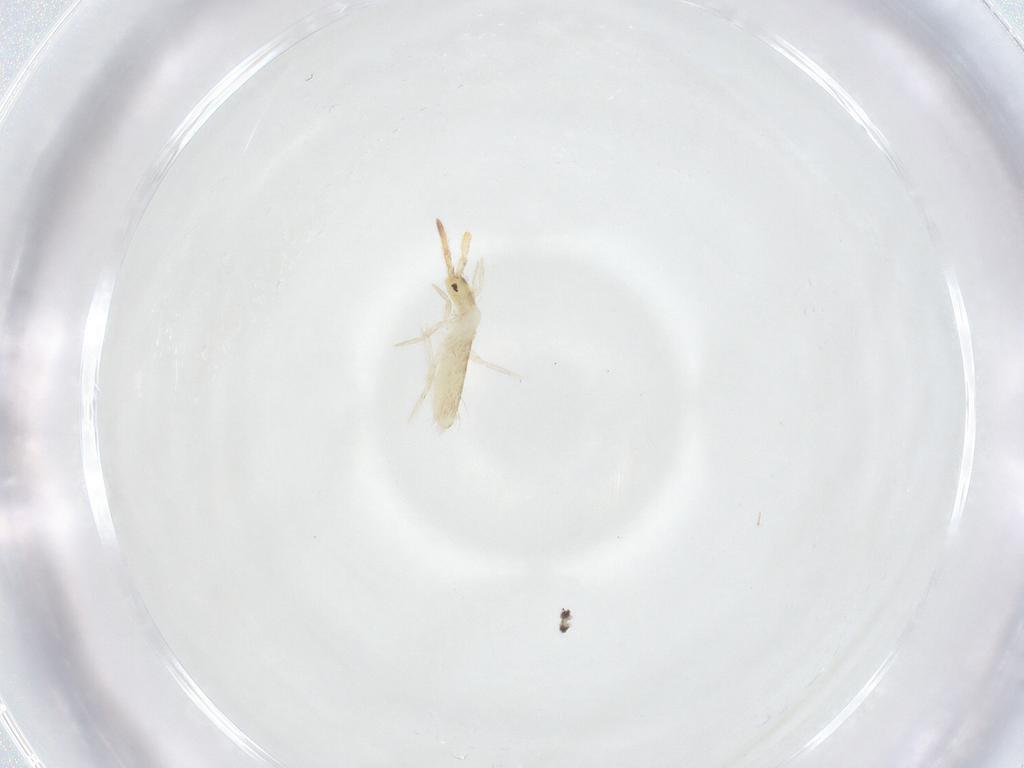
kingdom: Animalia
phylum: Arthropoda
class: Collembola
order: Entomobryomorpha
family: Entomobryidae
